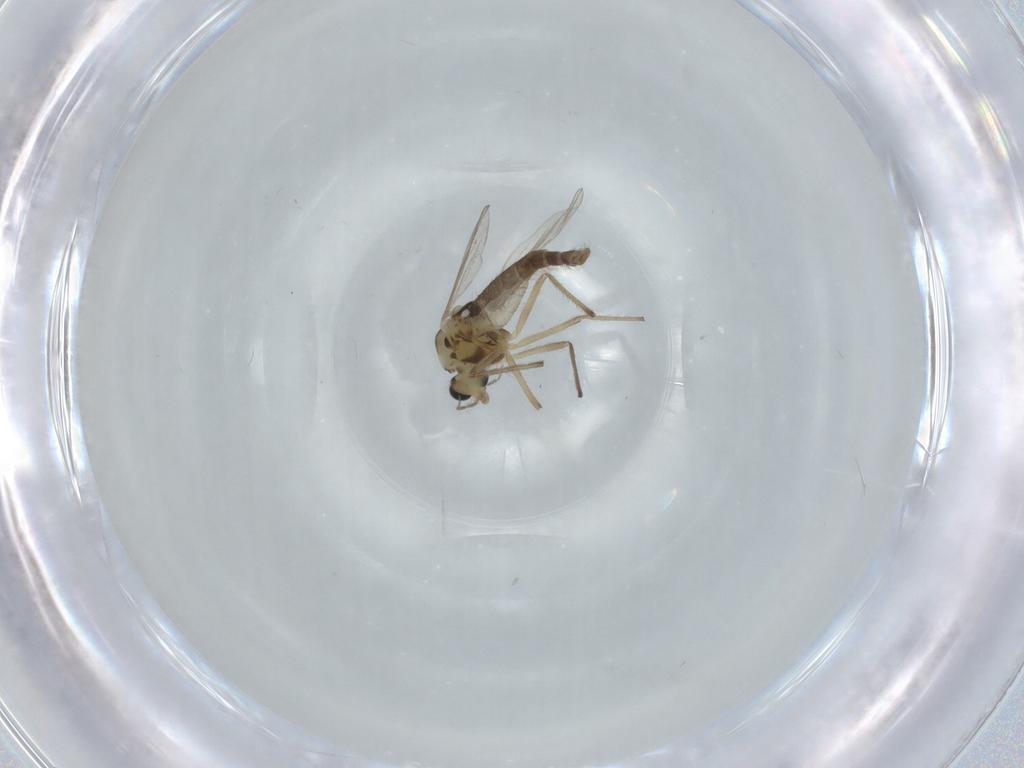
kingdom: Animalia
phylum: Arthropoda
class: Insecta
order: Diptera
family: Chironomidae
